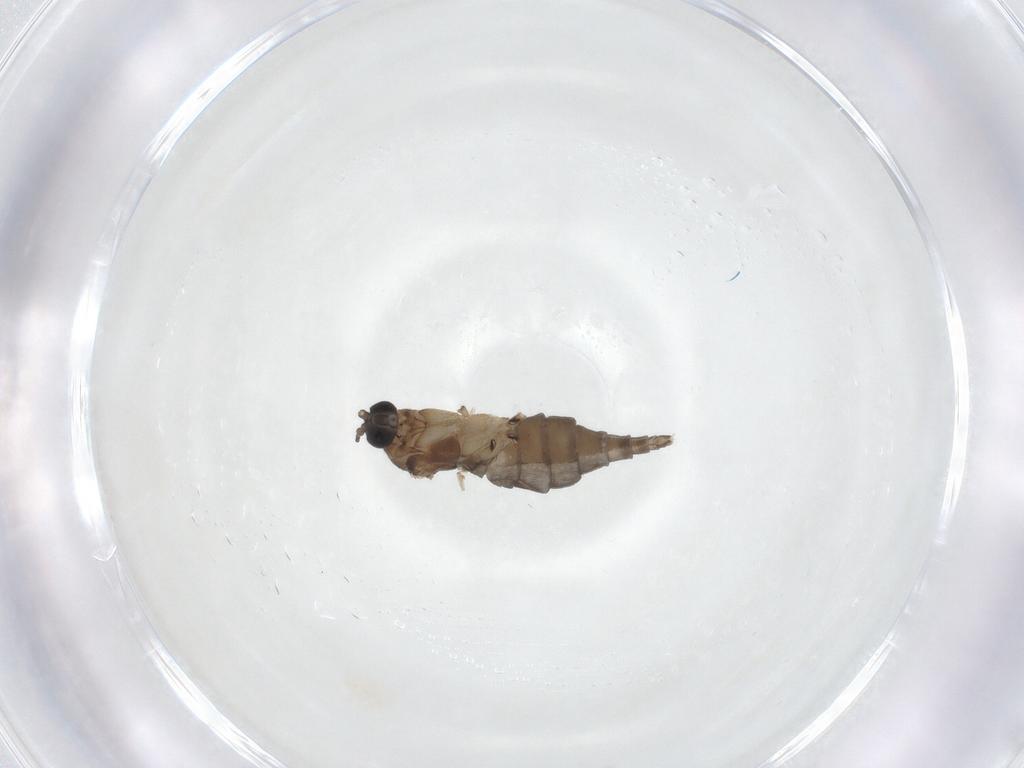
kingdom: Animalia
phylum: Arthropoda
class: Insecta
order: Diptera
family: Sciaridae
